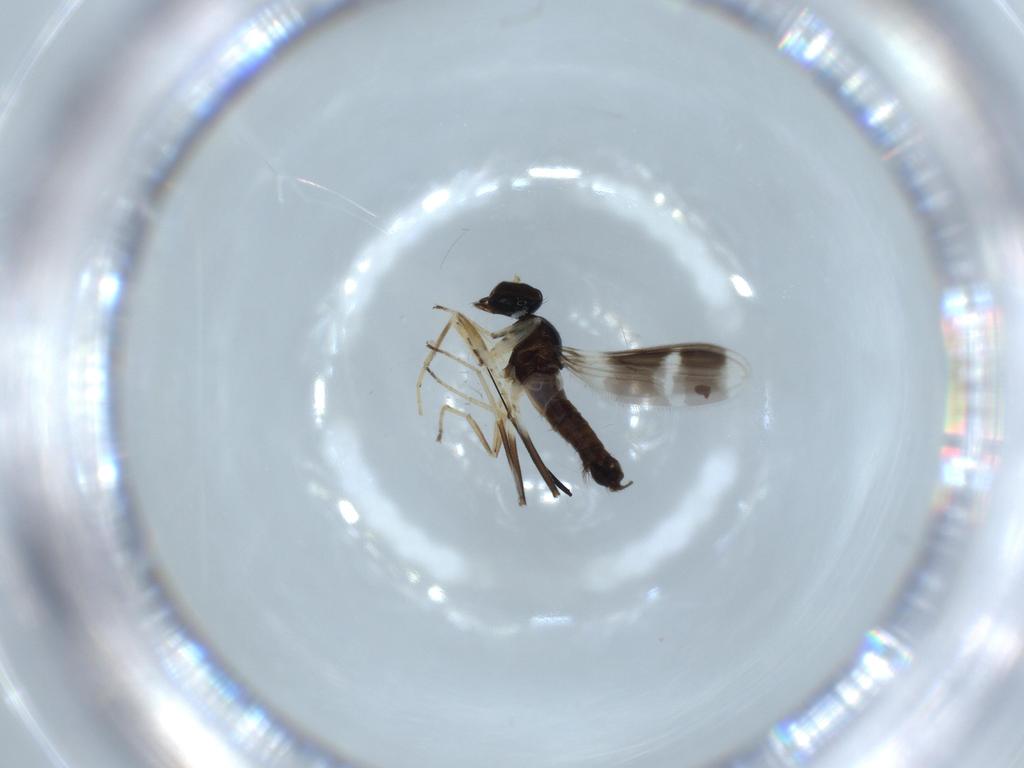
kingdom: Animalia
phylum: Arthropoda
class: Insecta
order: Diptera
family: Hybotidae
